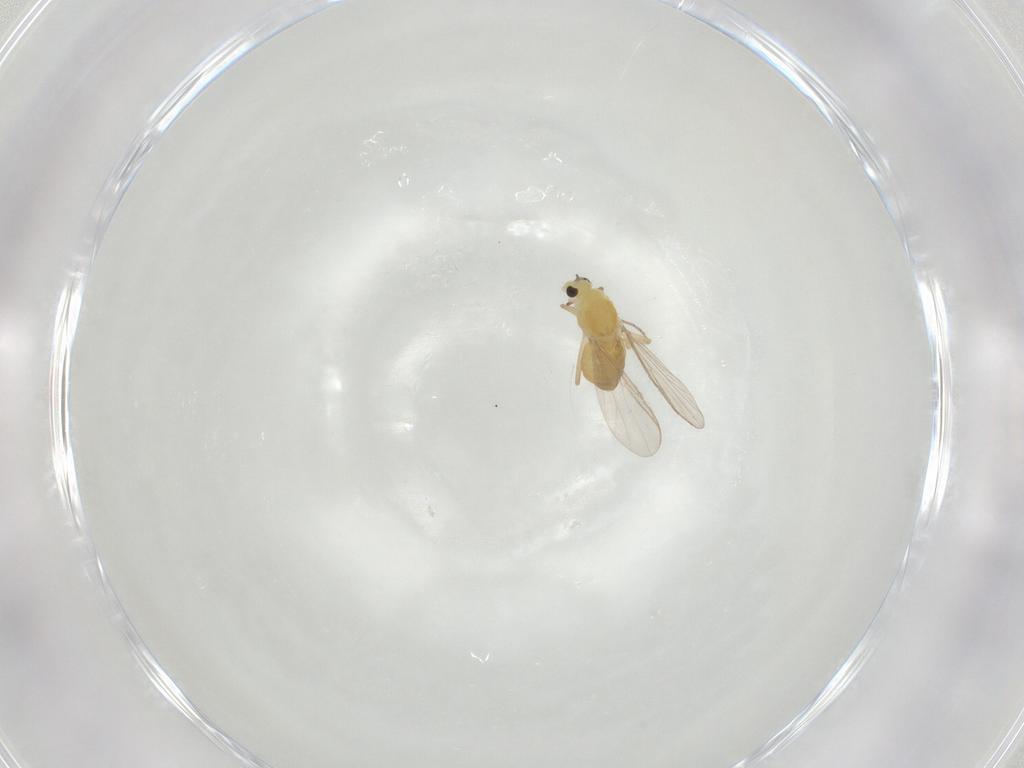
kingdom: Animalia
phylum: Arthropoda
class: Insecta
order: Diptera
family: Chironomidae
